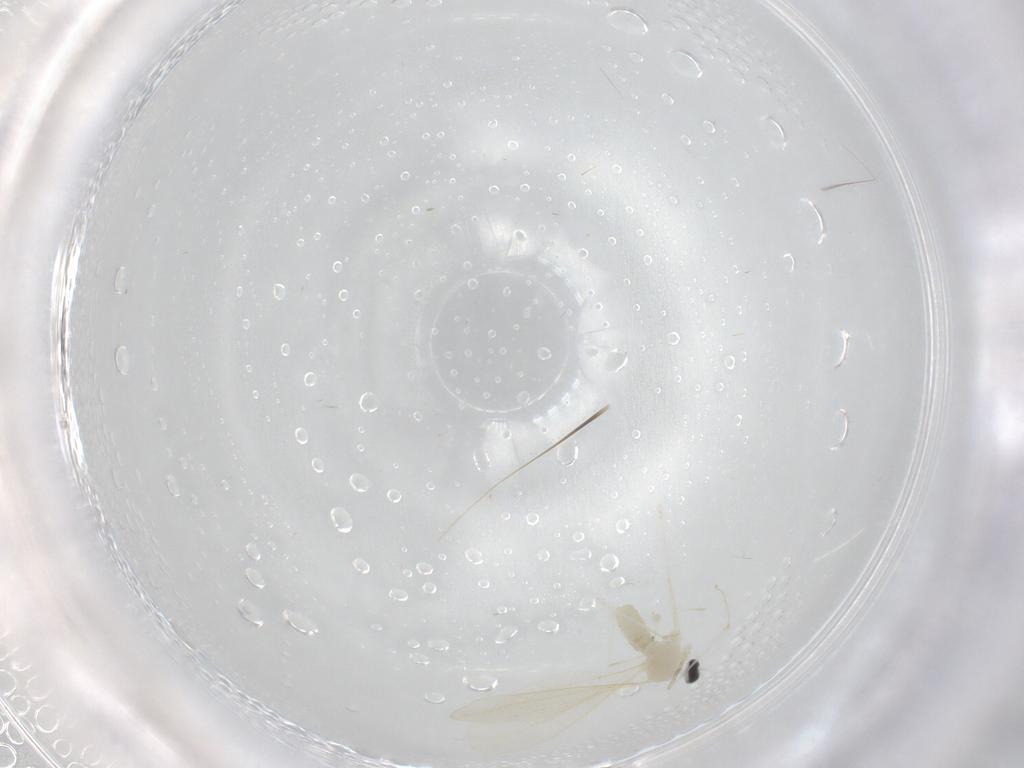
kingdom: Animalia
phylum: Arthropoda
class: Insecta
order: Diptera
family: Cecidomyiidae
